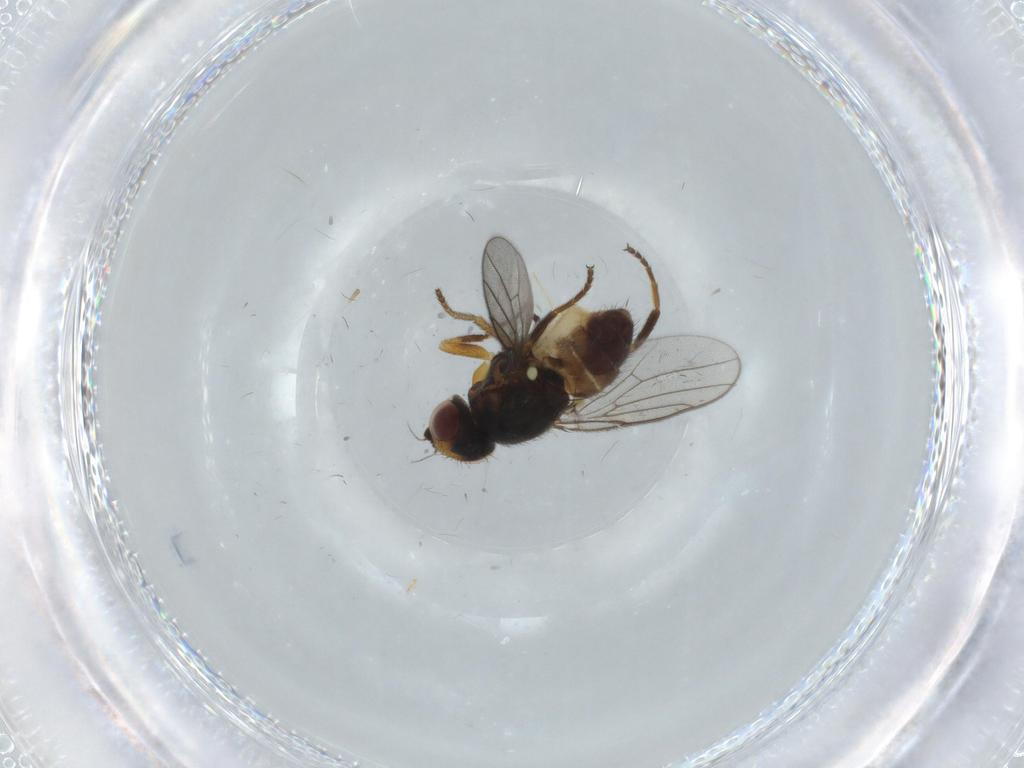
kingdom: Animalia
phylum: Arthropoda
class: Insecta
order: Diptera
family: Chloropidae
